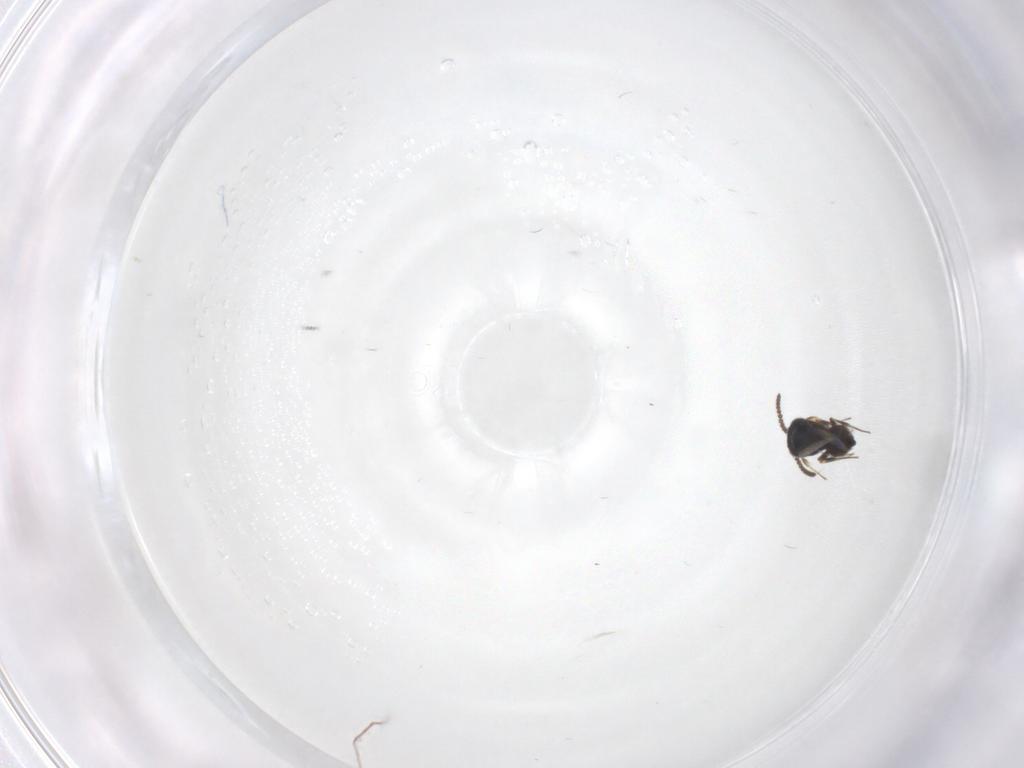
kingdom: Animalia
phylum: Arthropoda
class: Insecta
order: Hymenoptera
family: Scelionidae
